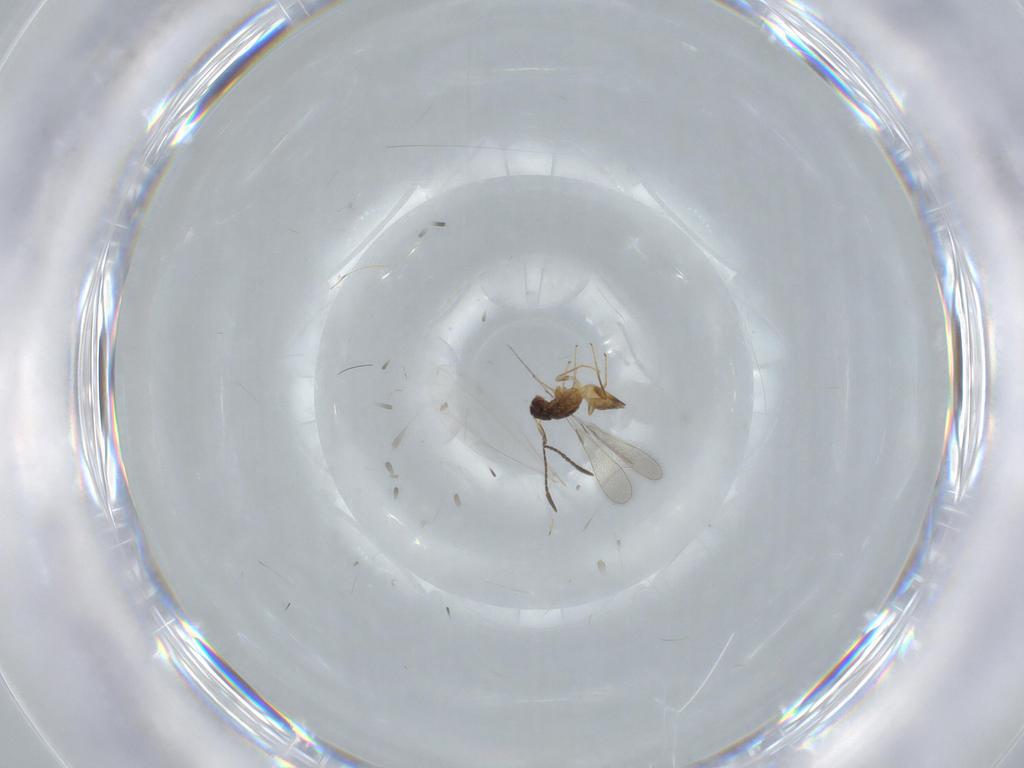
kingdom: Animalia
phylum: Arthropoda
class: Insecta
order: Hymenoptera
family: Mymaridae
